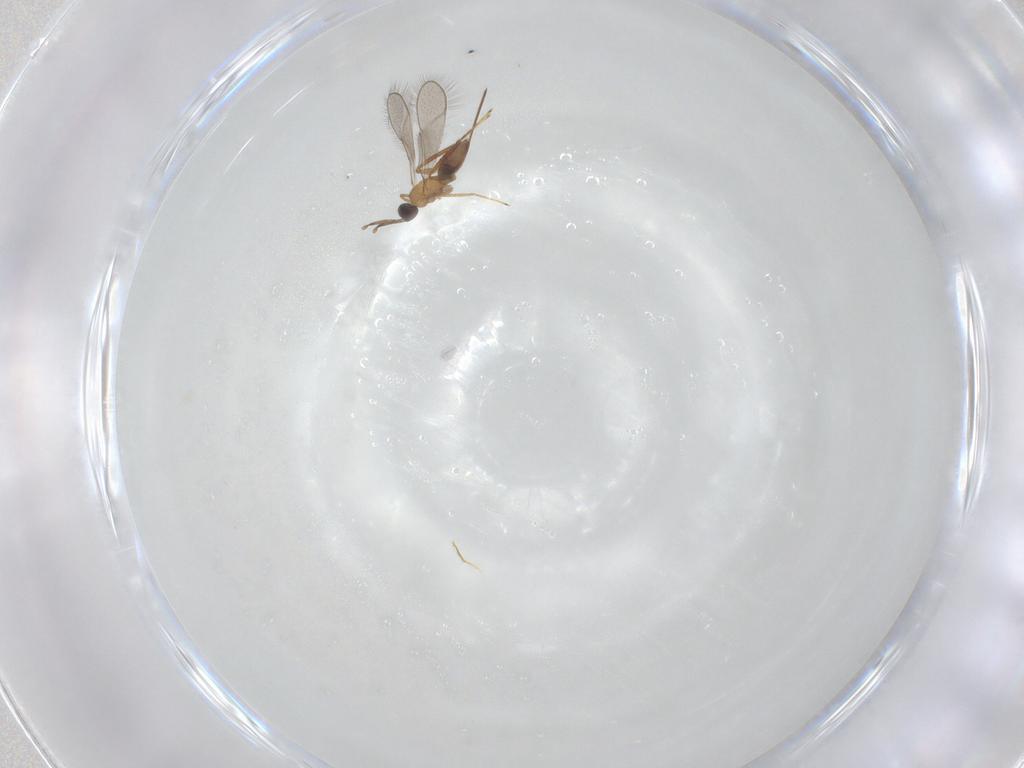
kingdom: Animalia
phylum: Arthropoda
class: Insecta
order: Hymenoptera
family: Mymaridae
